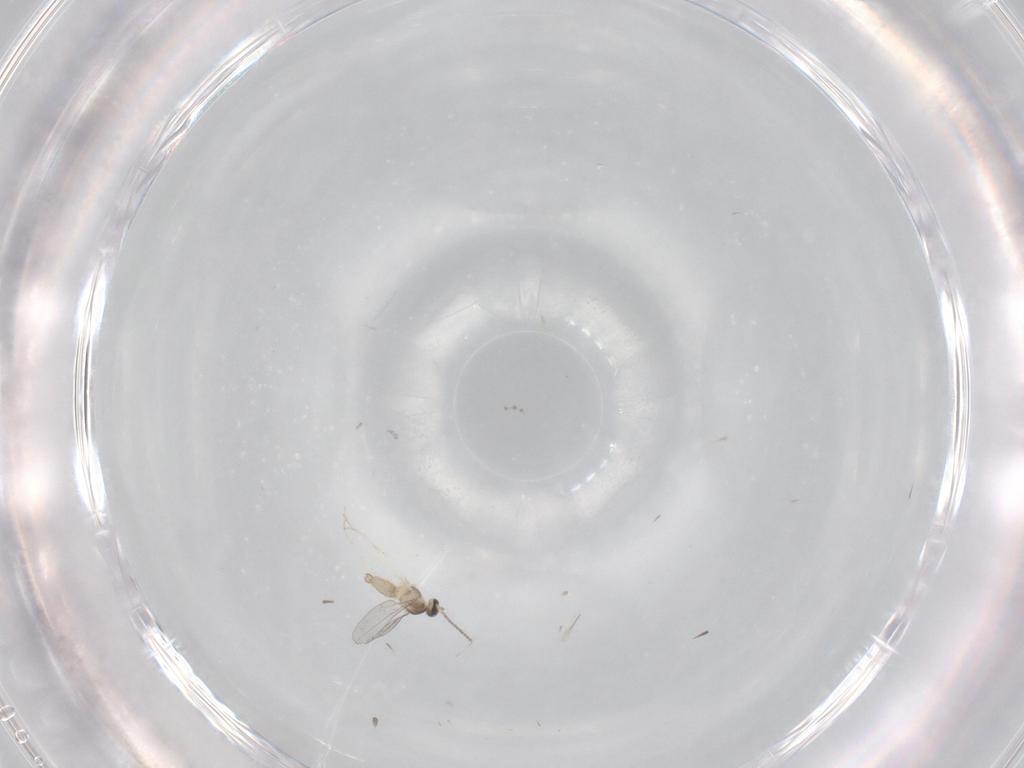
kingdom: Animalia
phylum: Arthropoda
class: Insecta
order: Diptera
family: Cecidomyiidae
